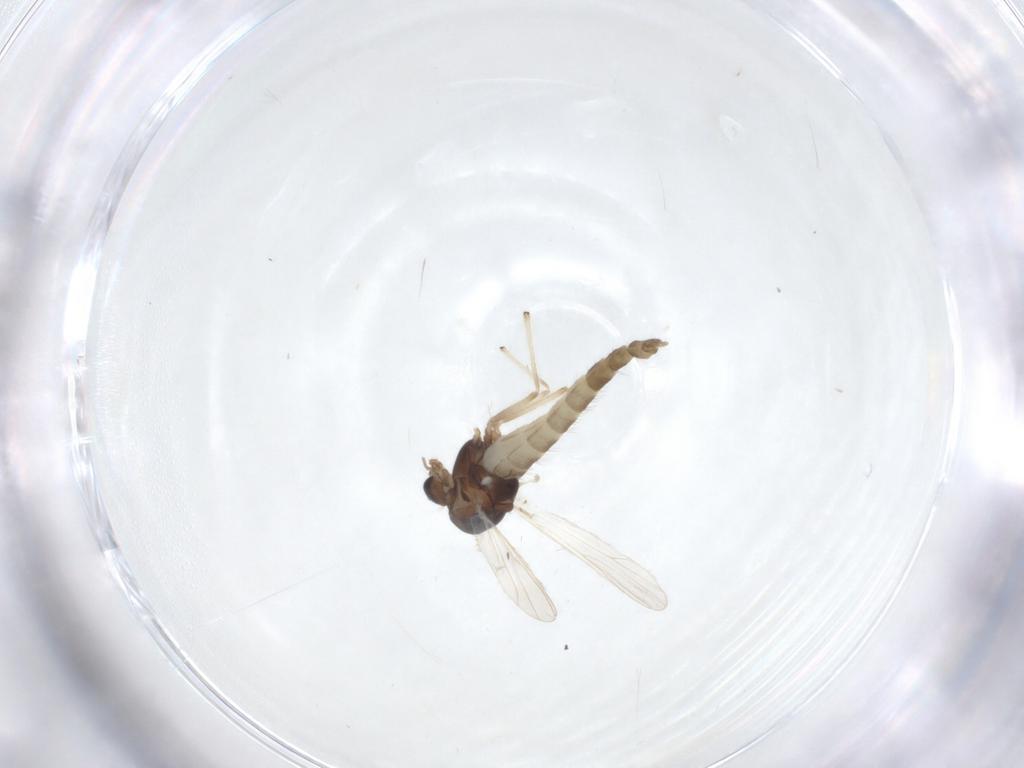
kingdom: Animalia
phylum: Arthropoda
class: Insecta
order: Diptera
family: Chironomidae
